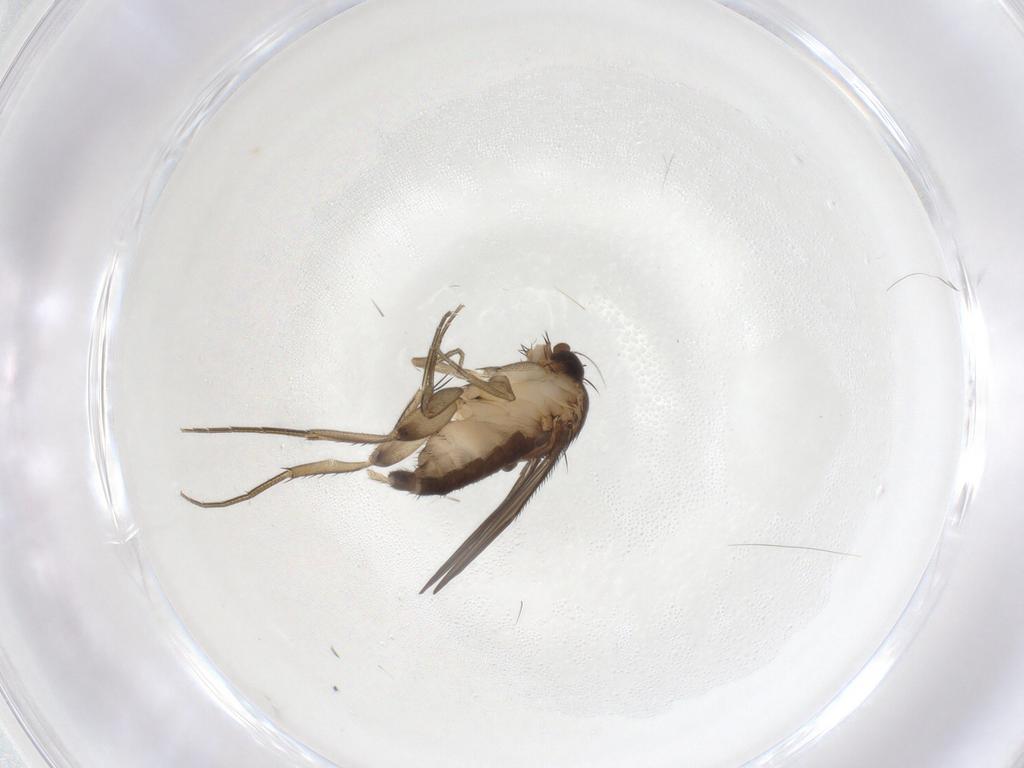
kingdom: Animalia
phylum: Arthropoda
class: Insecta
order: Diptera
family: Phoridae
